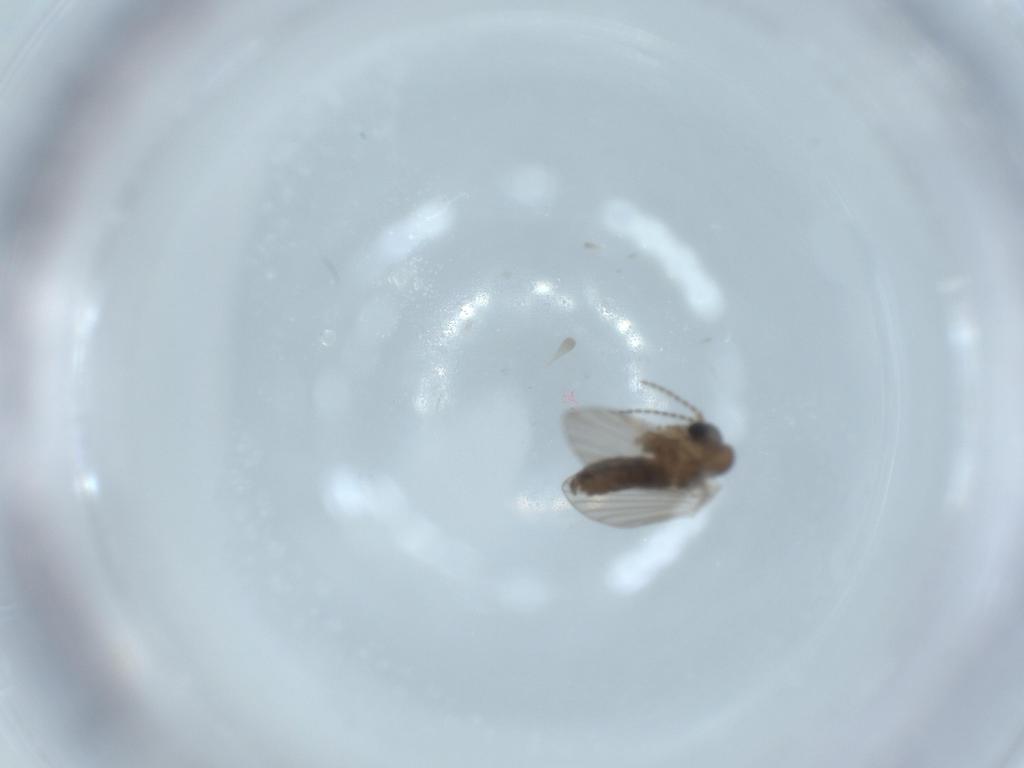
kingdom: Animalia
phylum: Arthropoda
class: Insecta
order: Diptera
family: Psychodidae
